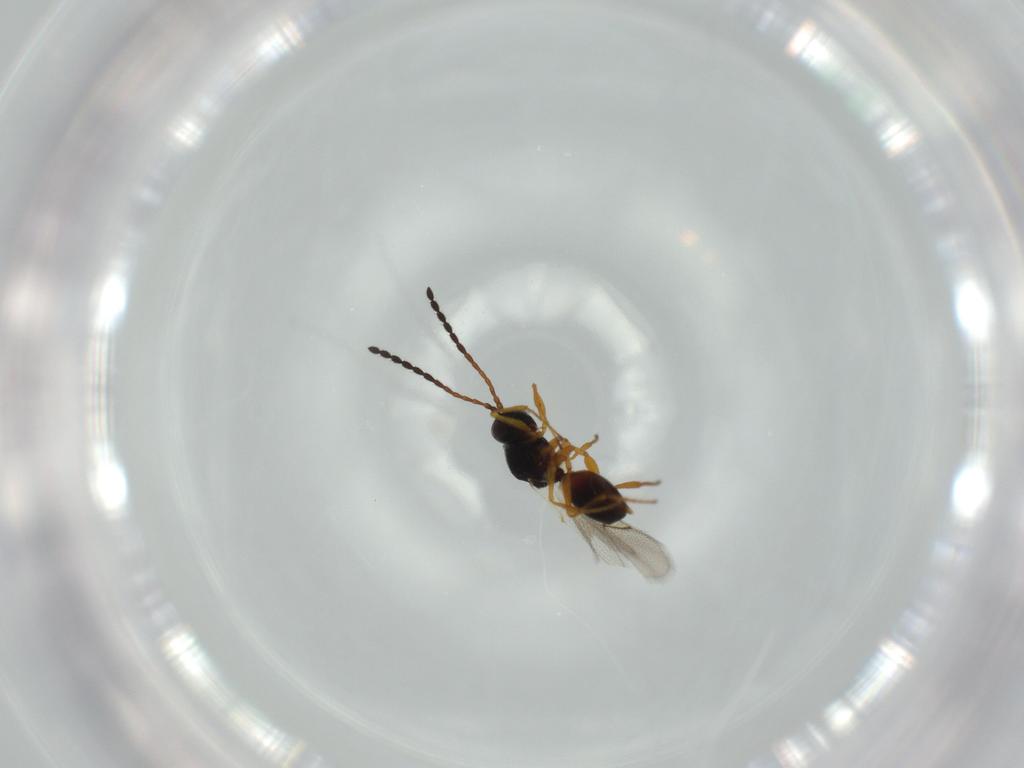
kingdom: Animalia
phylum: Arthropoda
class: Insecta
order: Hymenoptera
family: Figitidae
